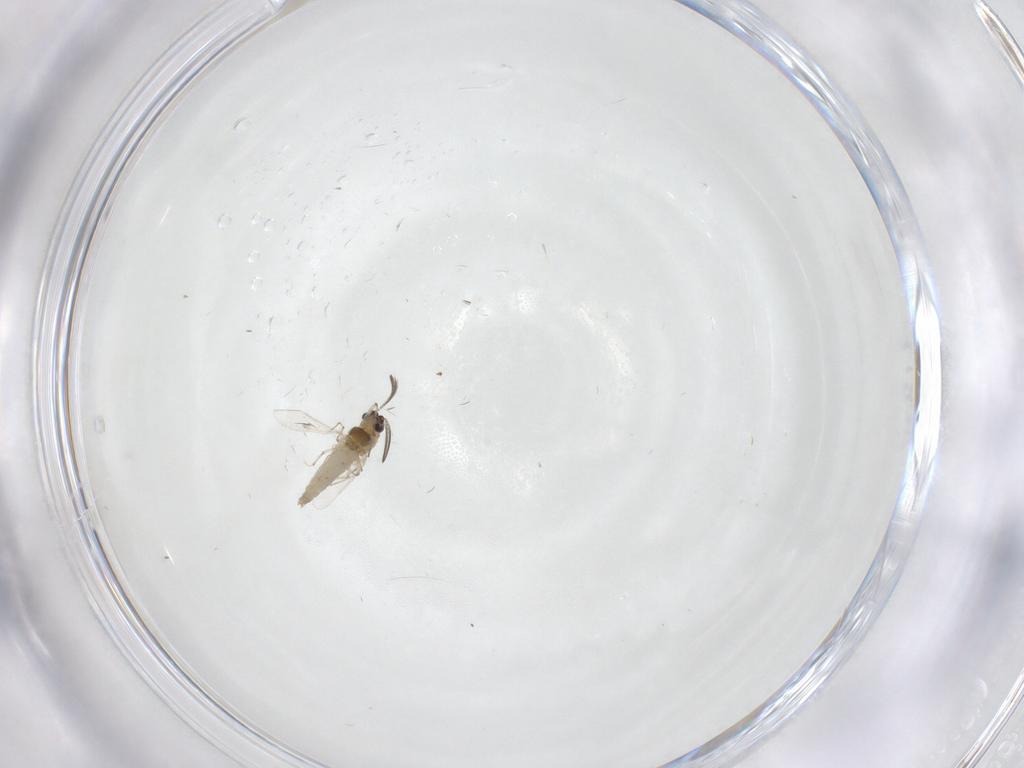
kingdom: Animalia
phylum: Arthropoda
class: Insecta
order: Diptera
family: Chironomidae
